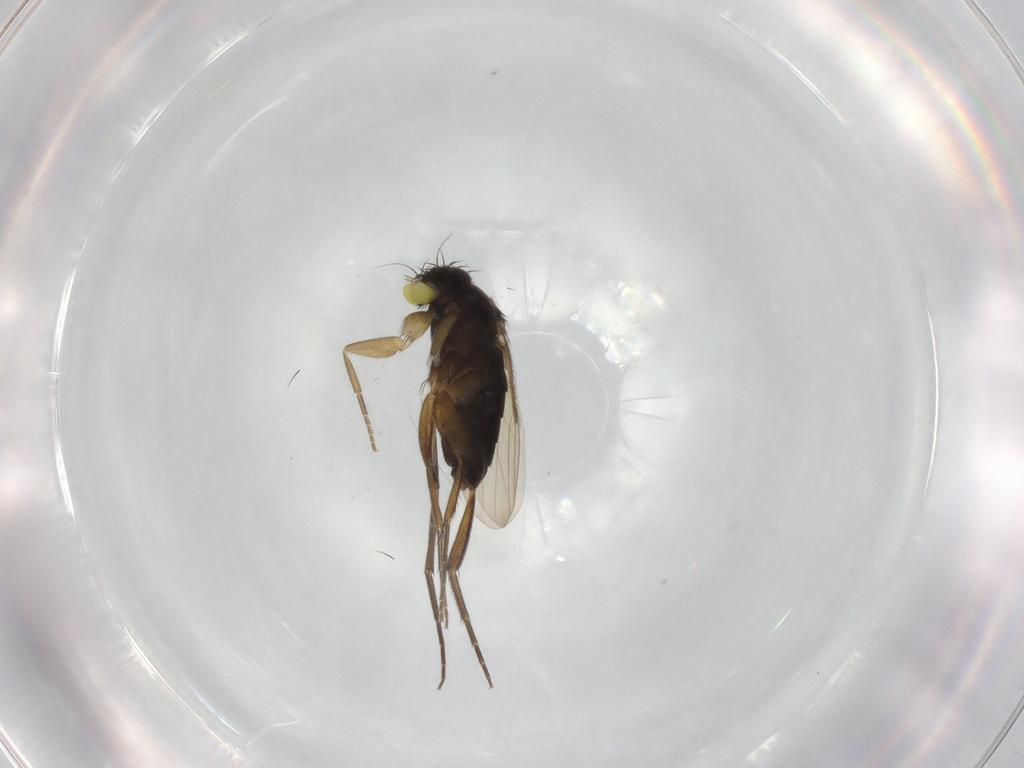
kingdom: Animalia
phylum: Arthropoda
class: Insecta
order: Diptera
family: Phoridae
